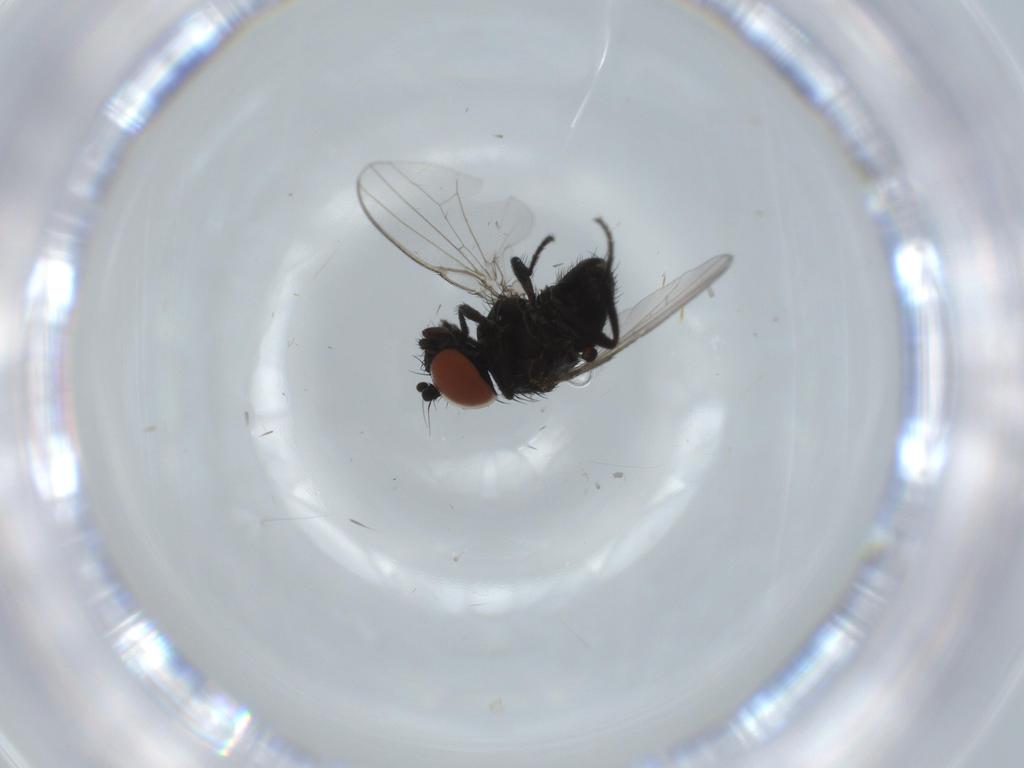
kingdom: Animalia
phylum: Arthropoda
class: Insecta
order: Diptera
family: Milichiidae
